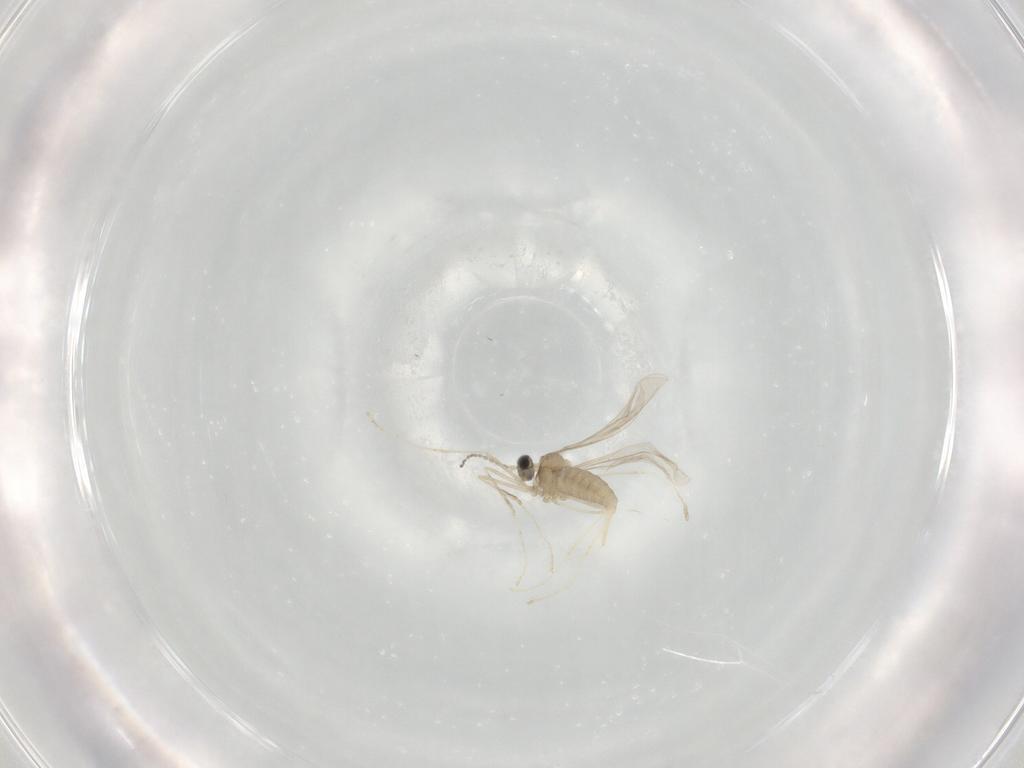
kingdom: Animalia
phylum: Arthropoda
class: Insecta
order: Diptera
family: Cecidomyiidae
